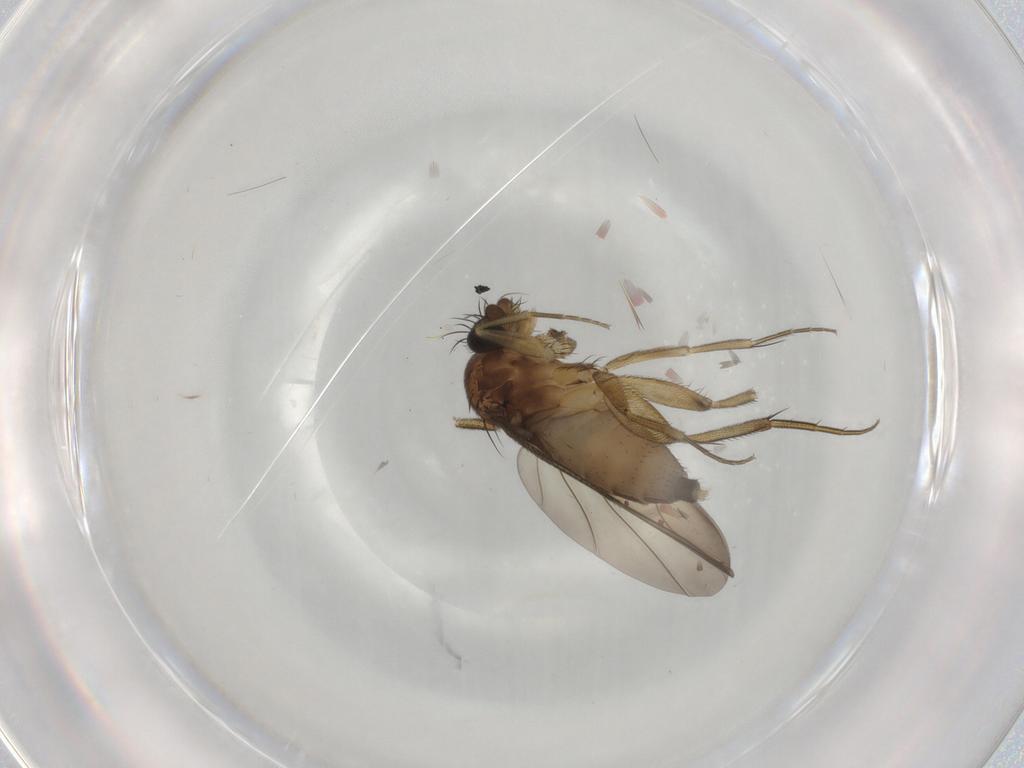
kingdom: Animalia
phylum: Arthropoda
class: Insecta
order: Diptera
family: Phoridae
